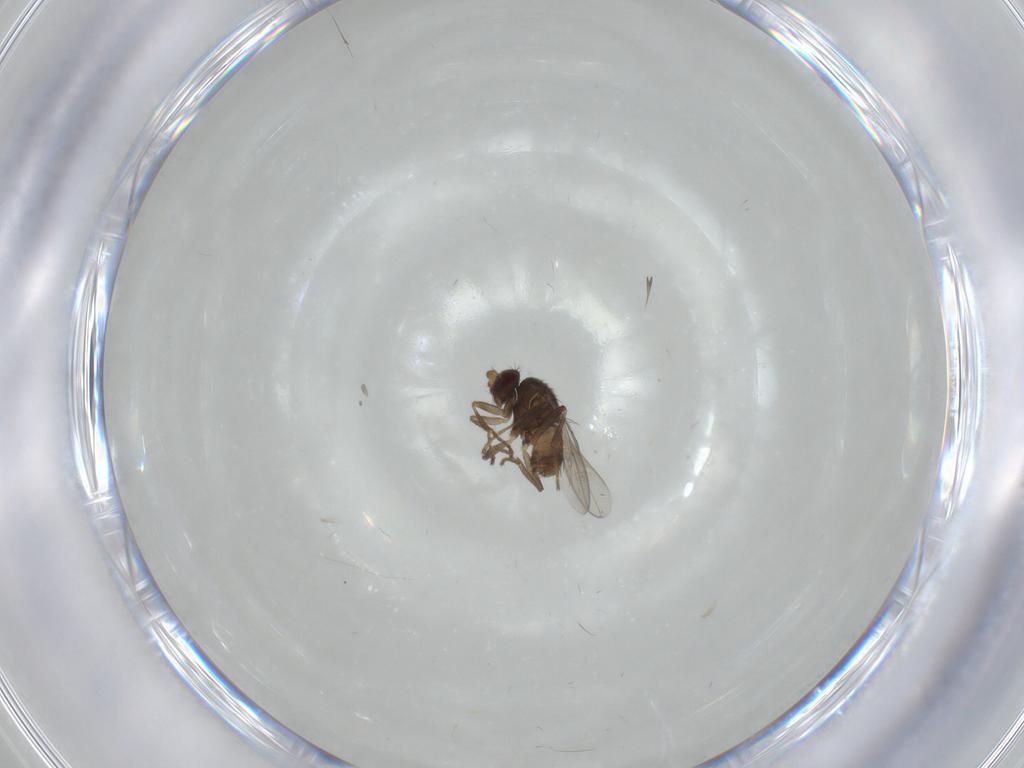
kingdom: Animalia
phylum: Arthropoda
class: Insecta
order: Diptera
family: Sphaeroceridae
